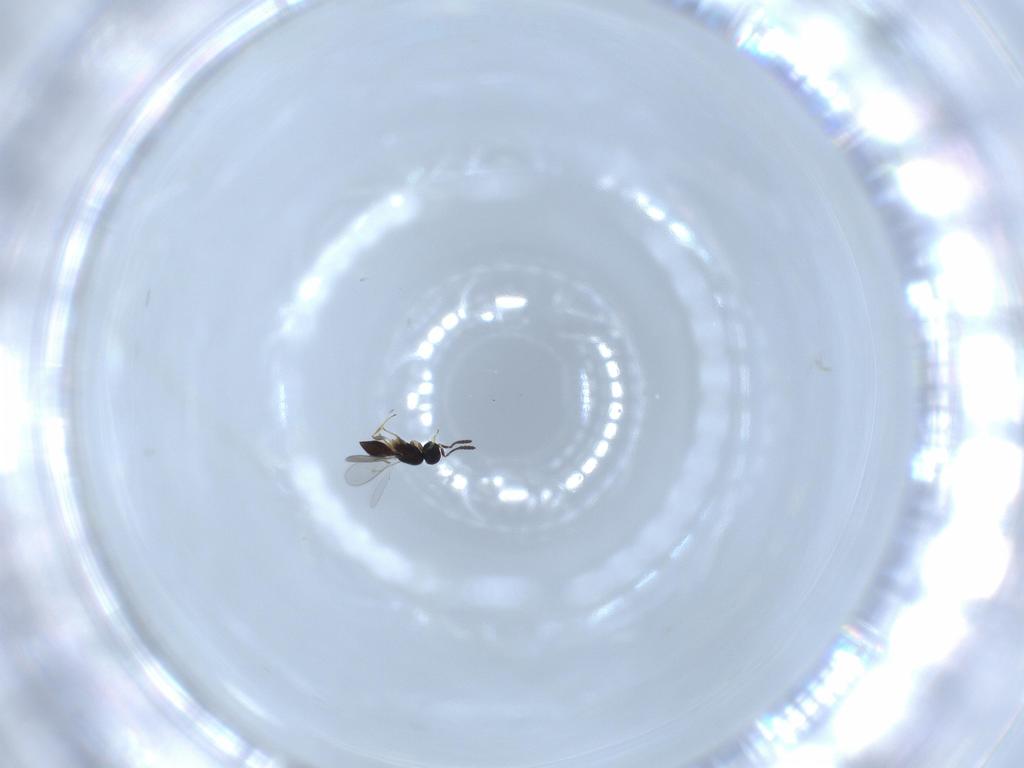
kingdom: Animalia
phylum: Arthropoda
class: Insecta
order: Hymenoptera
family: Scelionidae
